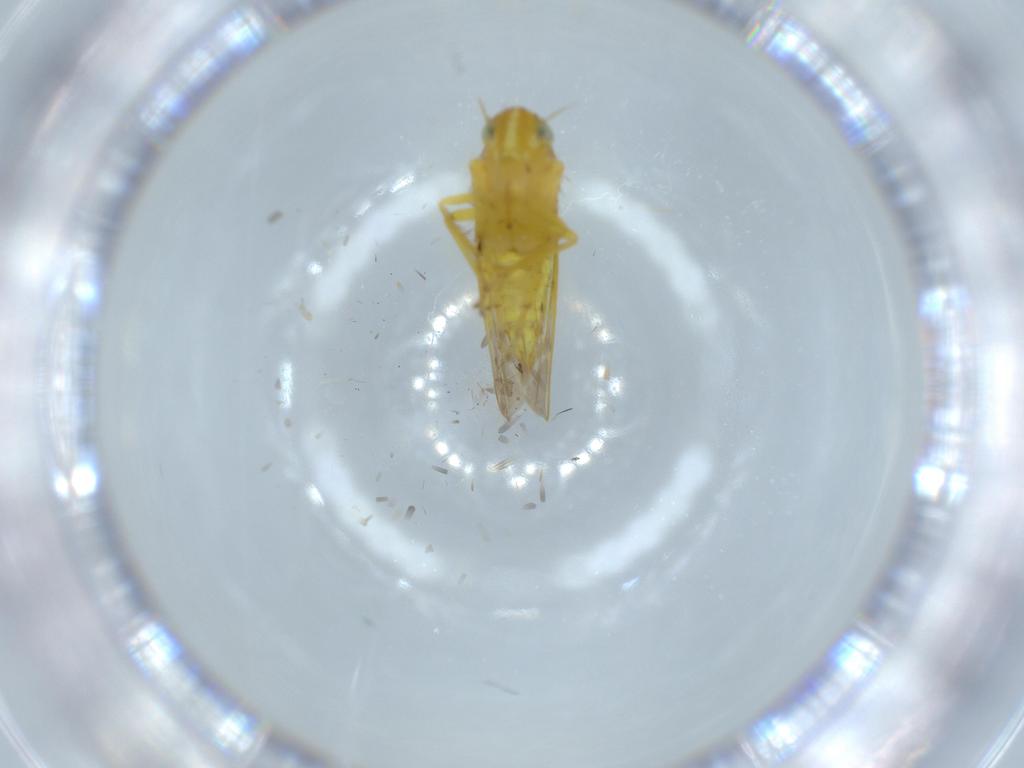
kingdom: Animalia
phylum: Arthropoda
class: Insecta
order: Hemiptera
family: Cicadellidae
